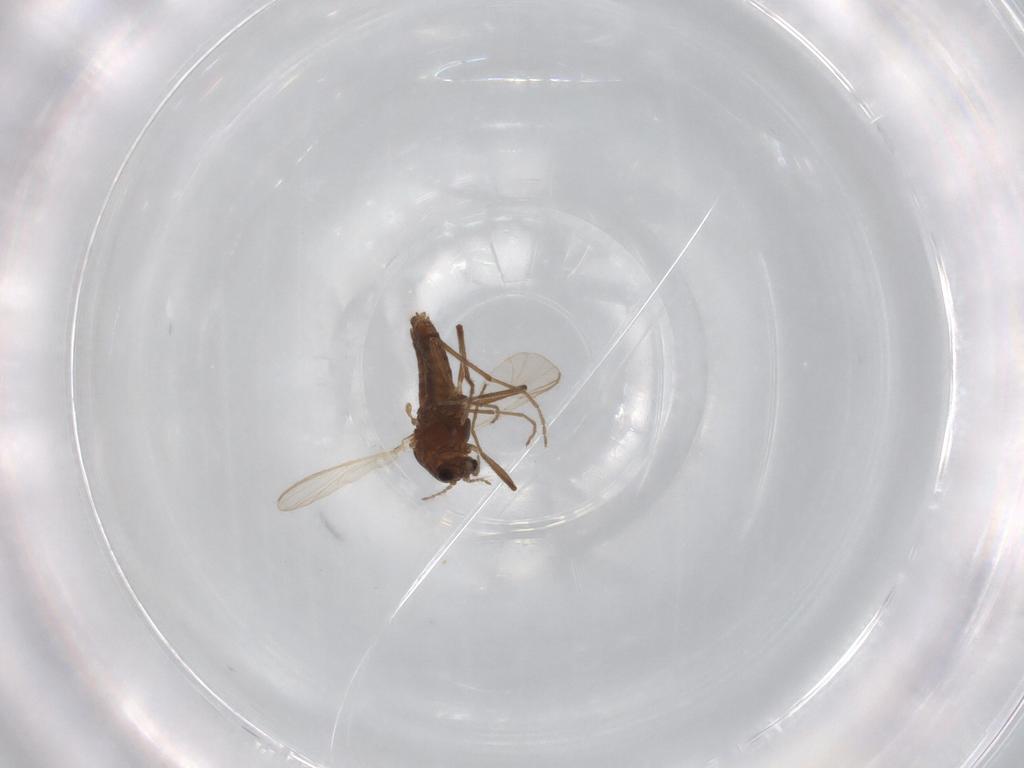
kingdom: Animalia
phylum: Arthropoda
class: Insecta
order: Diptera
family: Chironomidae
